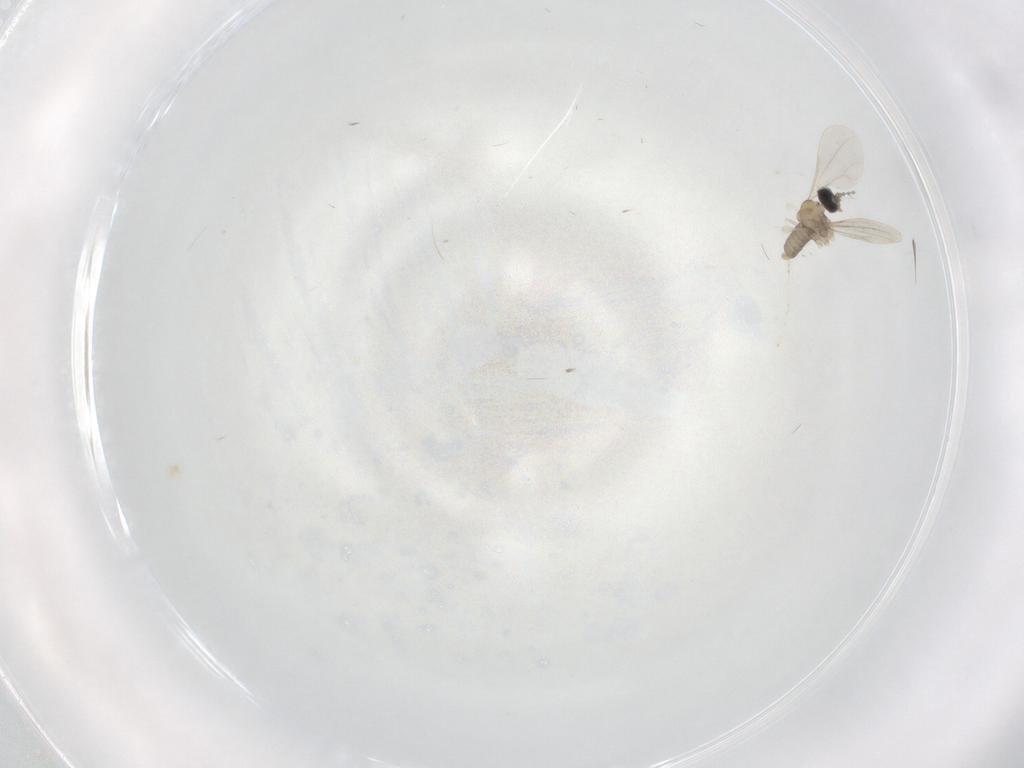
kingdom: Animalia
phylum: Arthropoda
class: Insecta
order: Diptera
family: Cecidomyiidae
